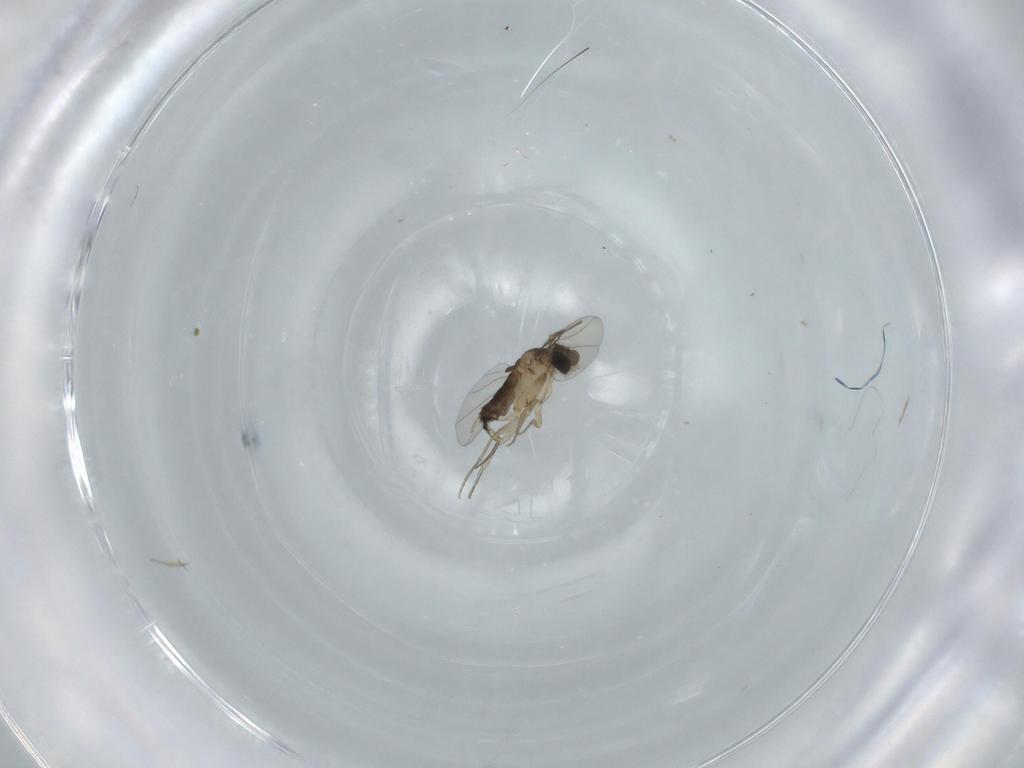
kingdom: Animalia
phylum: Arthropoda
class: Insecta
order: Diptera
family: Phoridae
